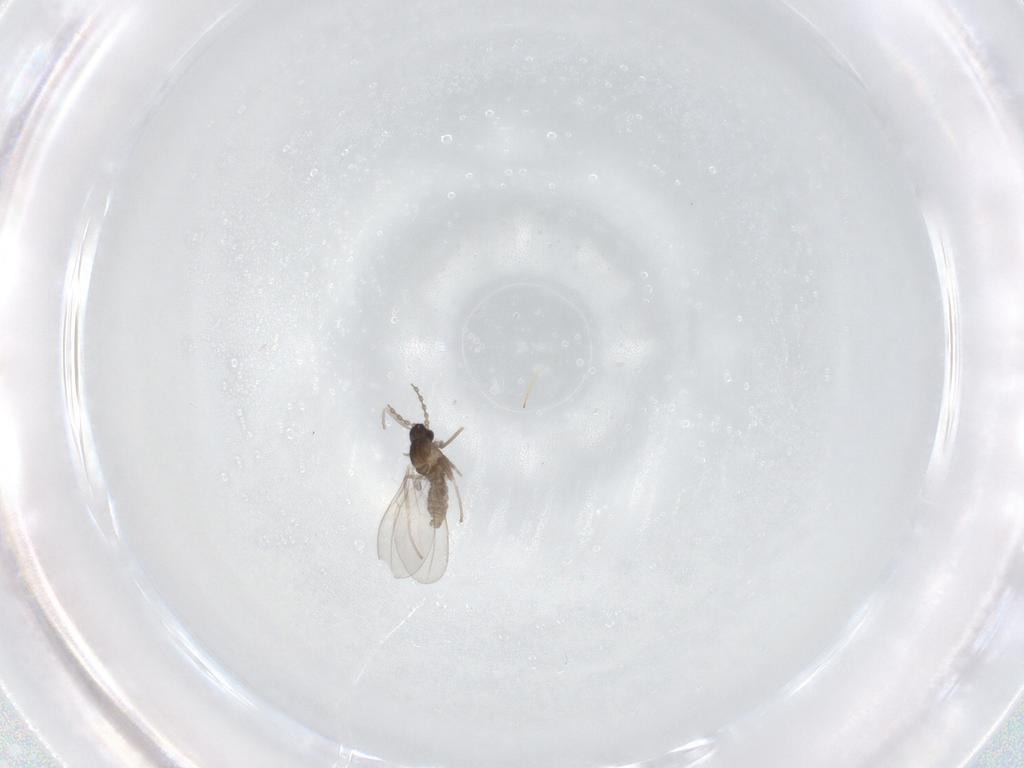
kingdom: Animalia
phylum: Arthropoda
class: Insecta
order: Diptera
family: Cecidomyiidae
